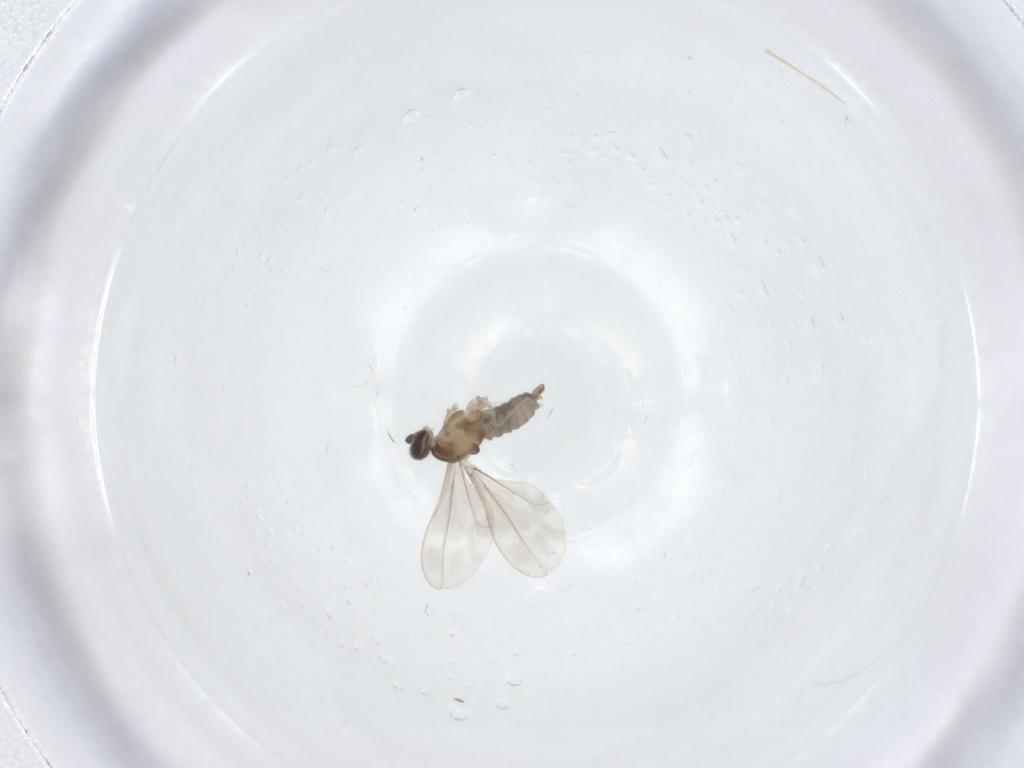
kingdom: Animalia
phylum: Arthropoda
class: Insecta
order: Diptera
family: Cecidomyiidae
